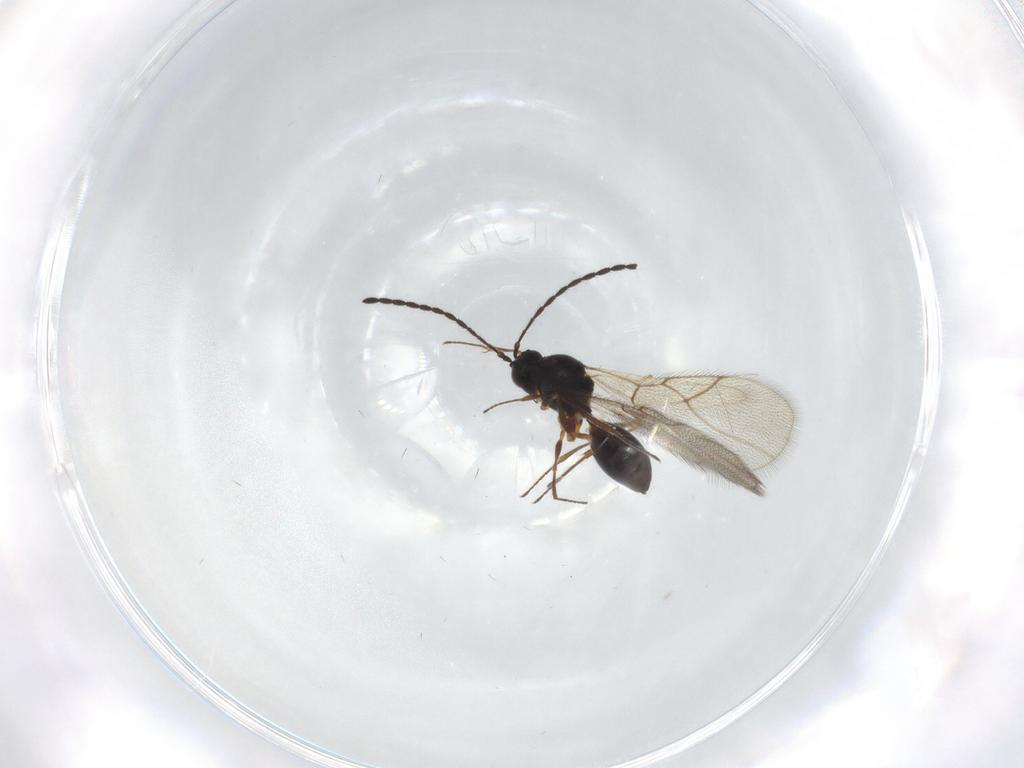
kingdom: Animalia
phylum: Arthropoda
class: Insecta
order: Hymenoptera
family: Figitidae
